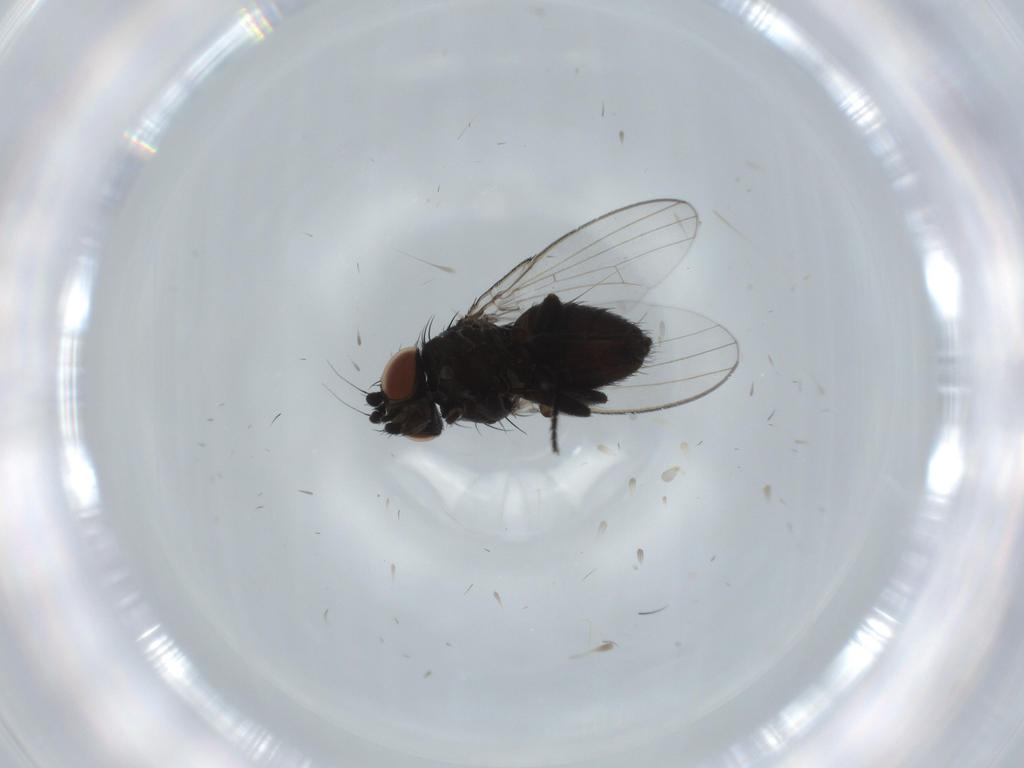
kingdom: Animalia
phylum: Arthropoda
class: Insecta
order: Diptera
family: Milichiidae
